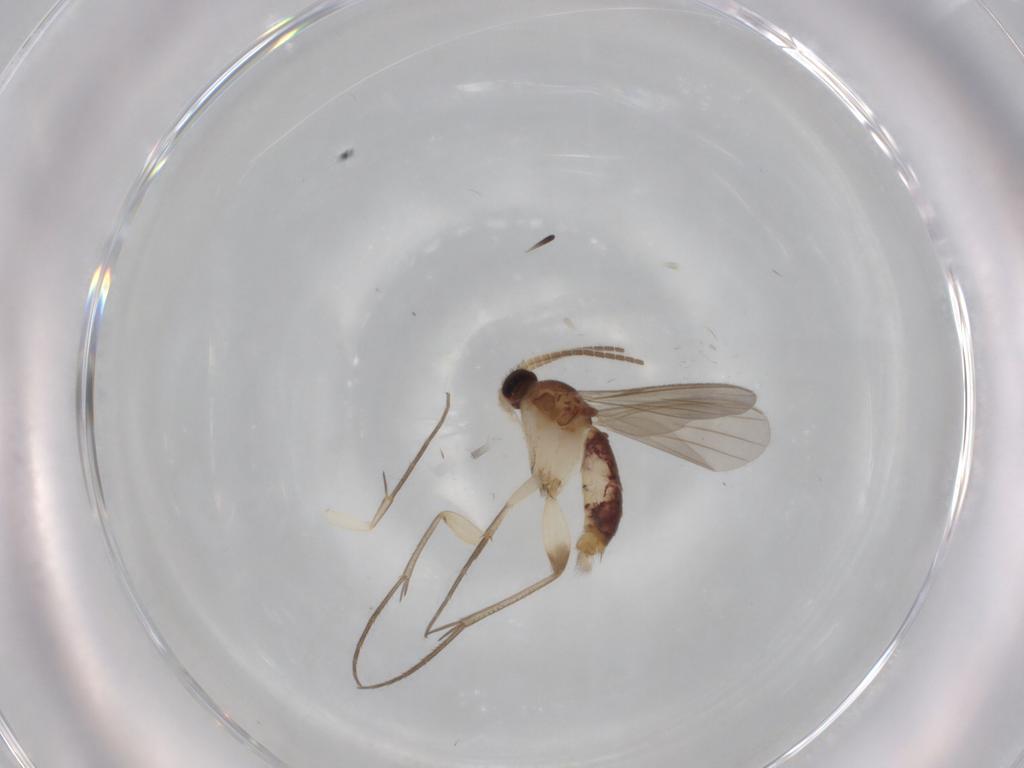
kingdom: Animalia
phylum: Arthropoda
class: Insecta
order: Diptera
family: Mycetophilidae
